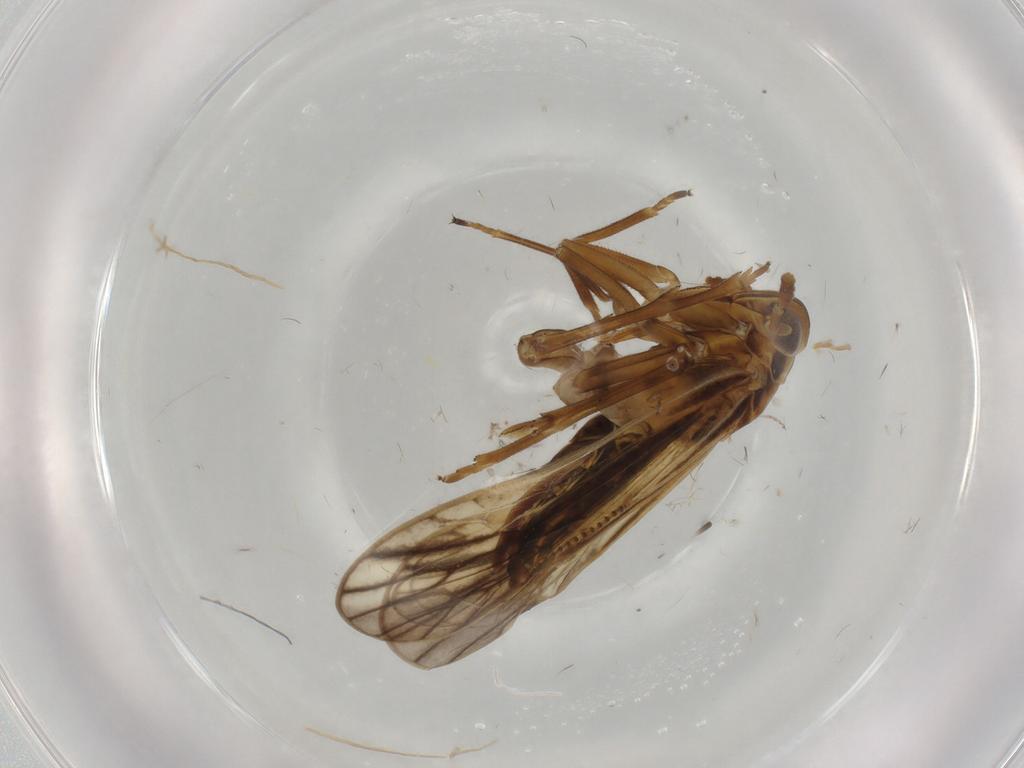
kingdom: Animalia
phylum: Arthropoda
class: Insecta
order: Hemiptera
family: Delphacidae
